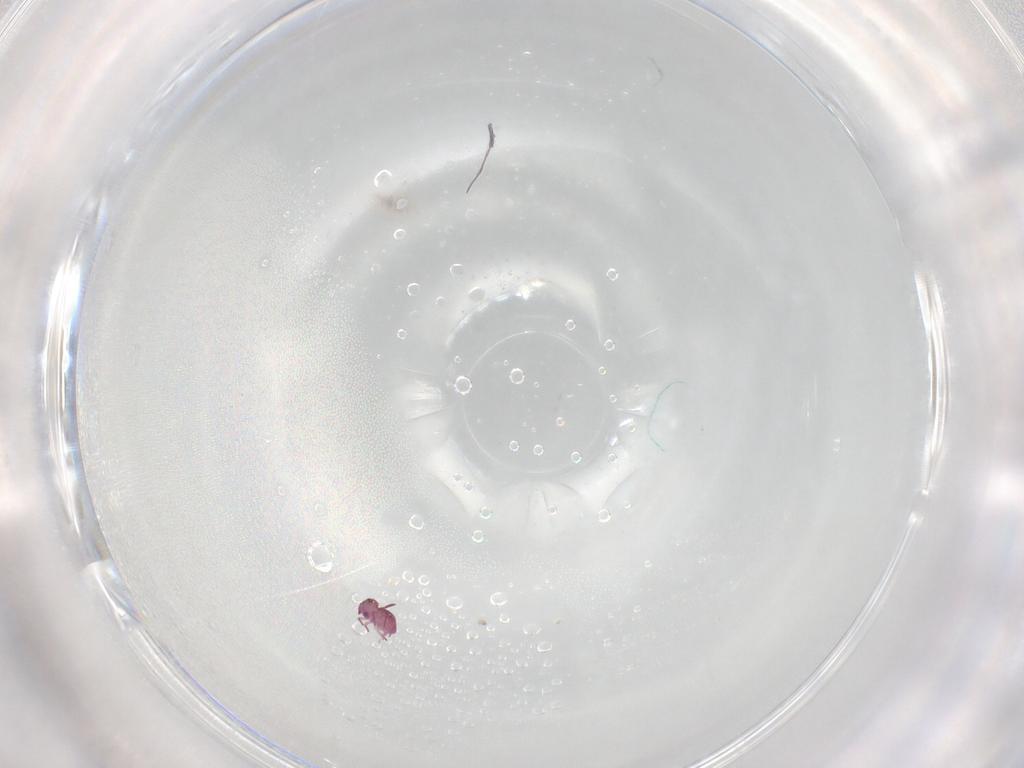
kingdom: Animalia
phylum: Arthropoda
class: Collembola
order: Symphypleona
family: Sminthurididae
